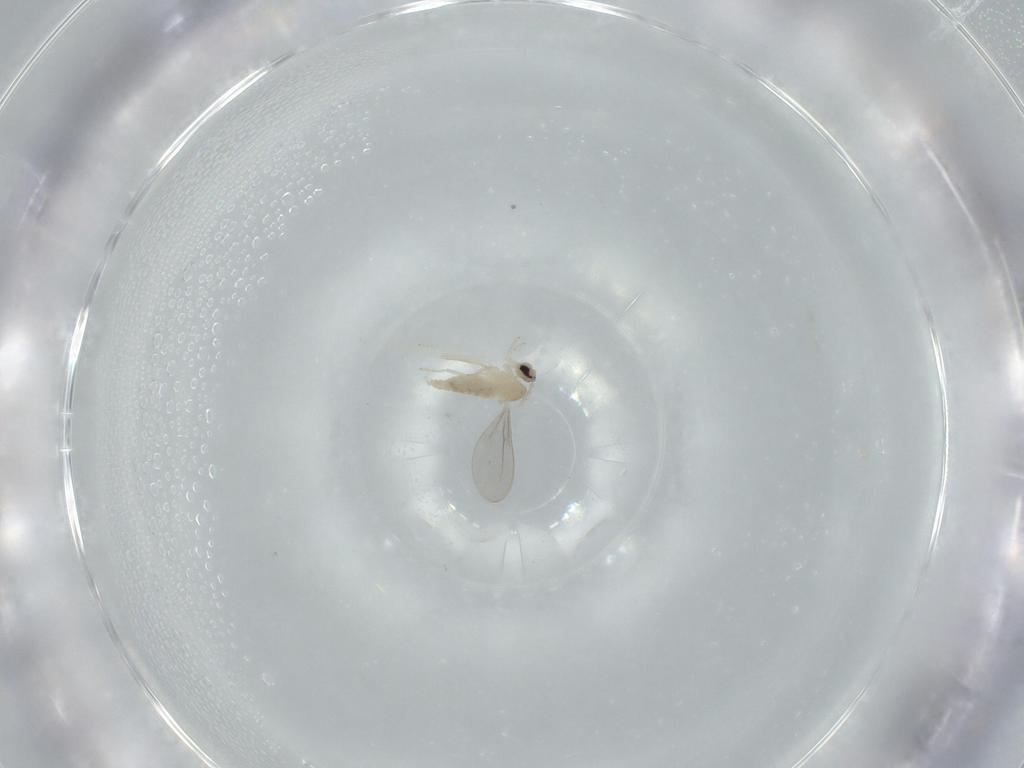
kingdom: Animalia
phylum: Arthropoda
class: Insecta
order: Diptera
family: Cecidomyiidae
